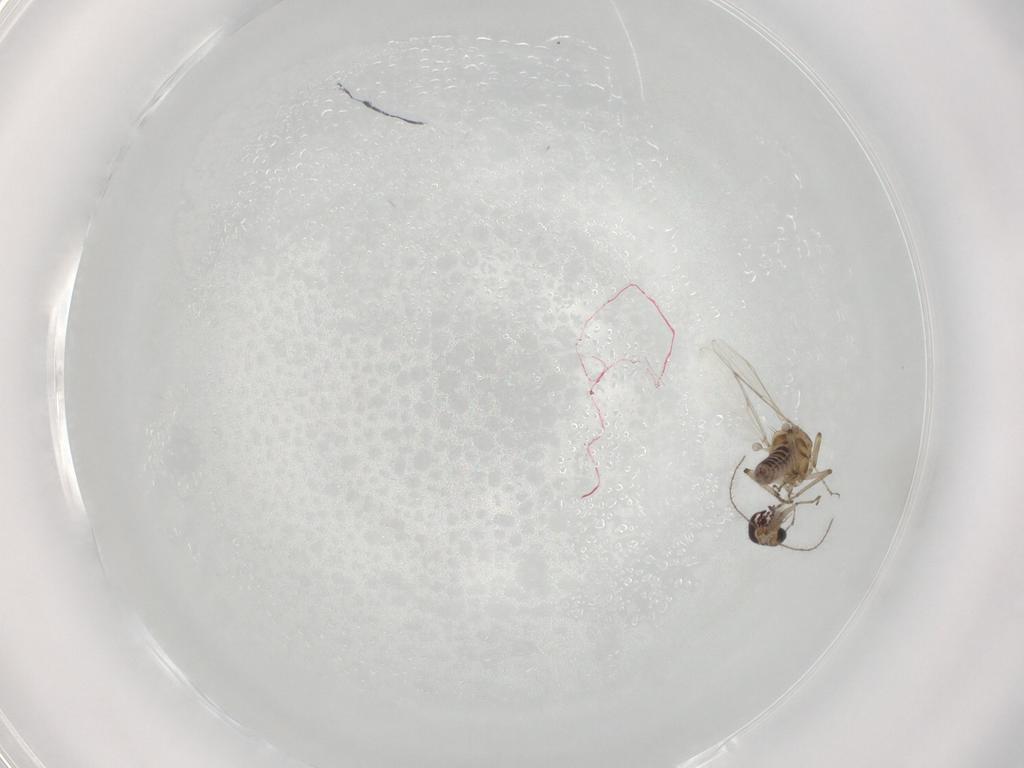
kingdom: Animalia
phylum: Arthropoda
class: Insecta
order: Diptera
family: Ceratopogonidae
